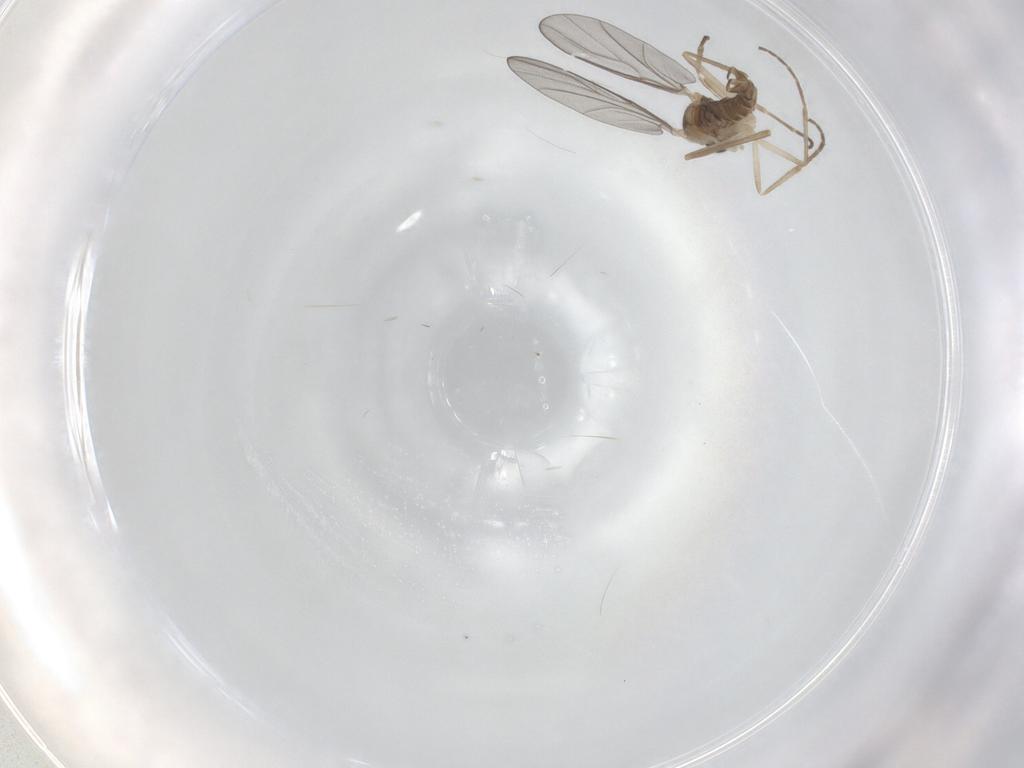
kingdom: Animalia
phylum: Arthropoda
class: Insecta
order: Diptera
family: Cecidomyiidae
